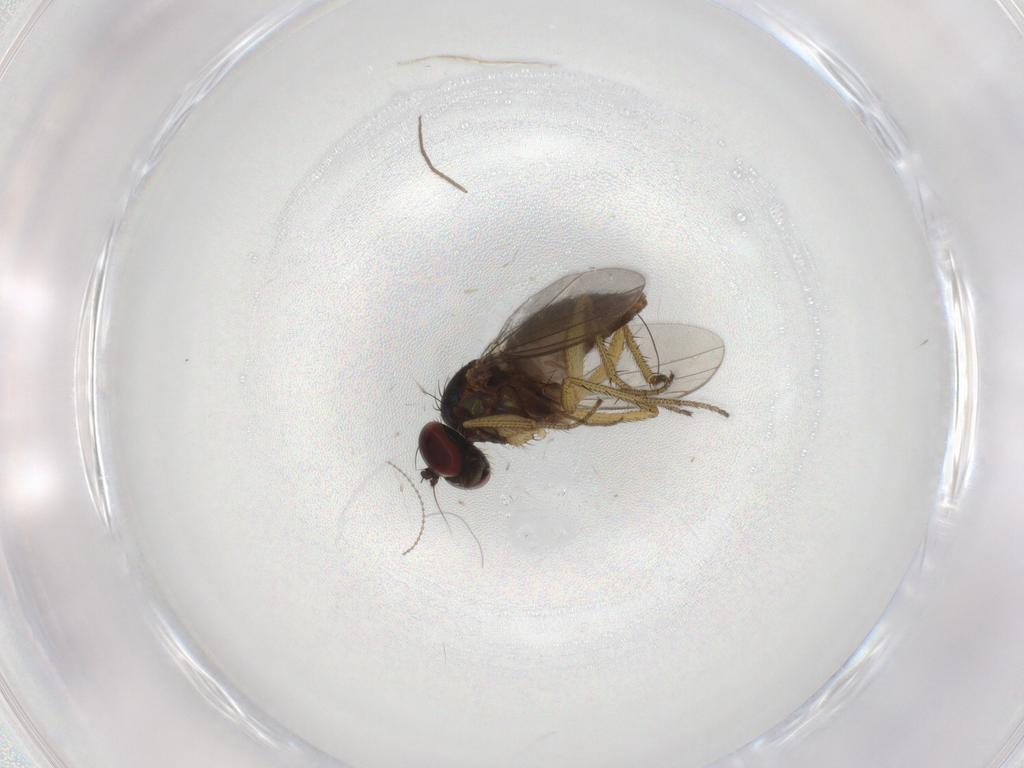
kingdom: Animalia
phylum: Arthropoda
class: Insecta
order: Diptera
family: Chironomidae
